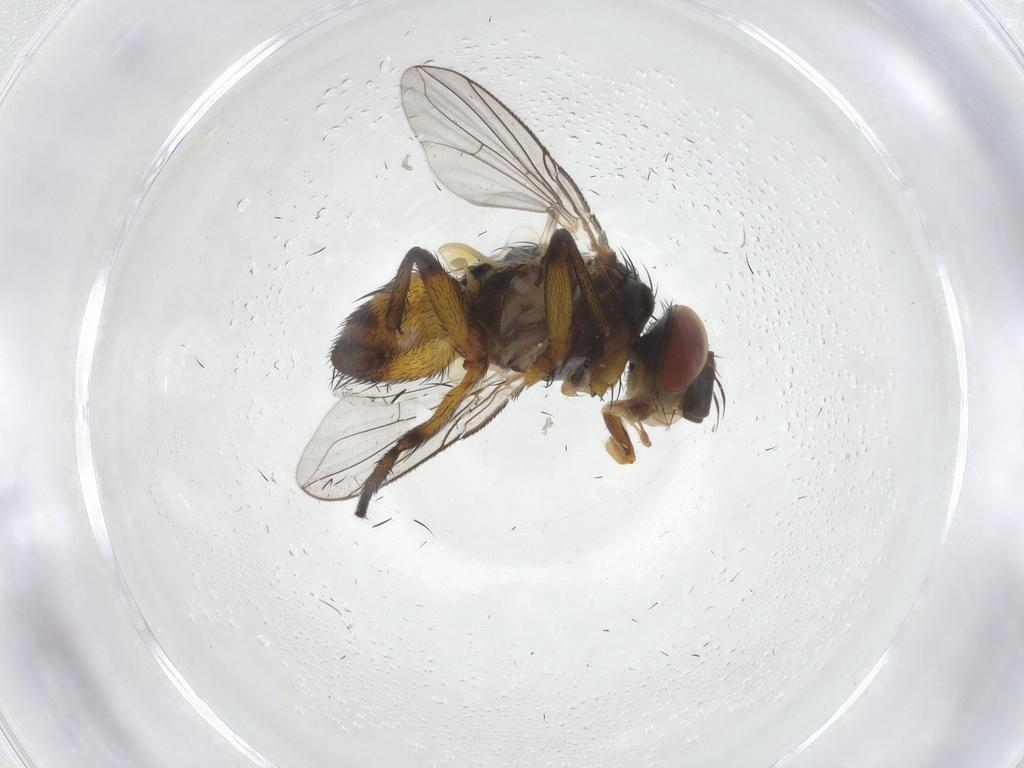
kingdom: Animalia
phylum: Arthropoda
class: Insecta
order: Diptera
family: Tachinidae
